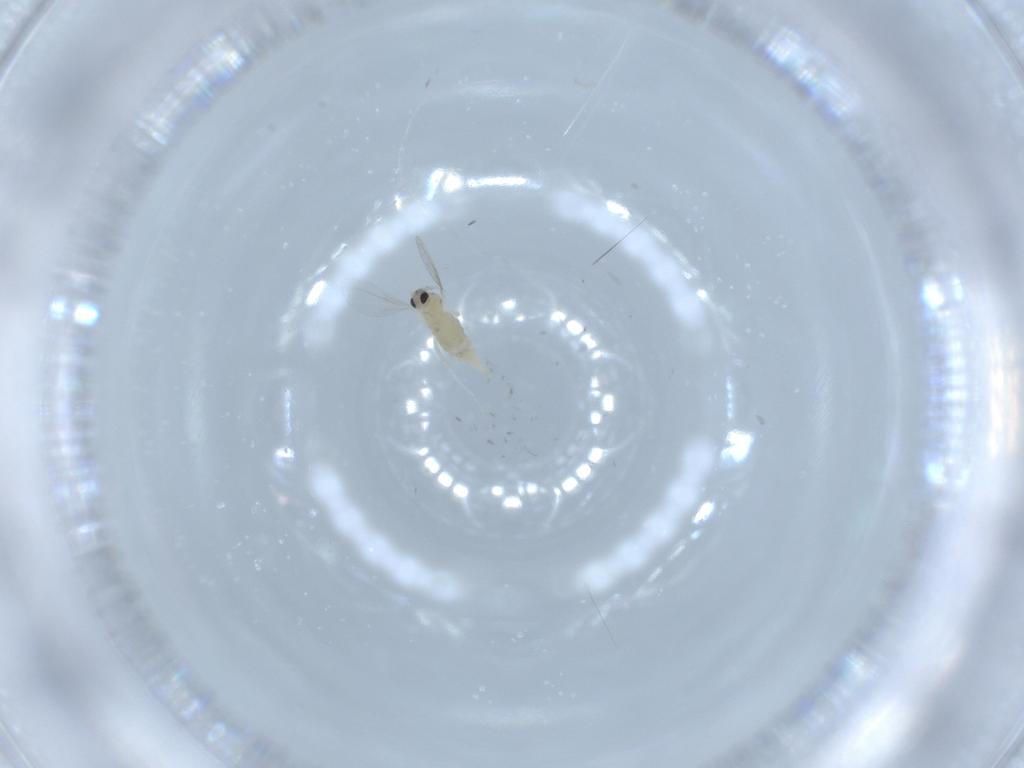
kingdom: Animalia
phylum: Arthropoda
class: Insecta
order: Diptera
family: Cecidomyiidae
